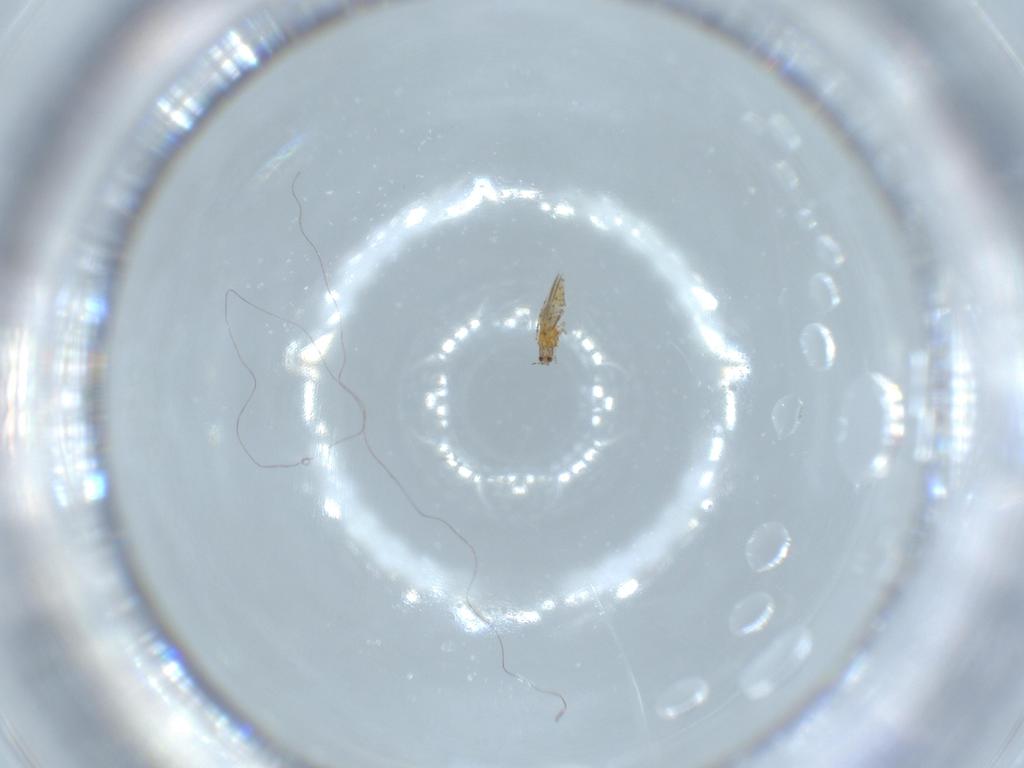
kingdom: Animalia
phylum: Arthropoda
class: Insecta
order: Thysanoptera
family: Thripidae
